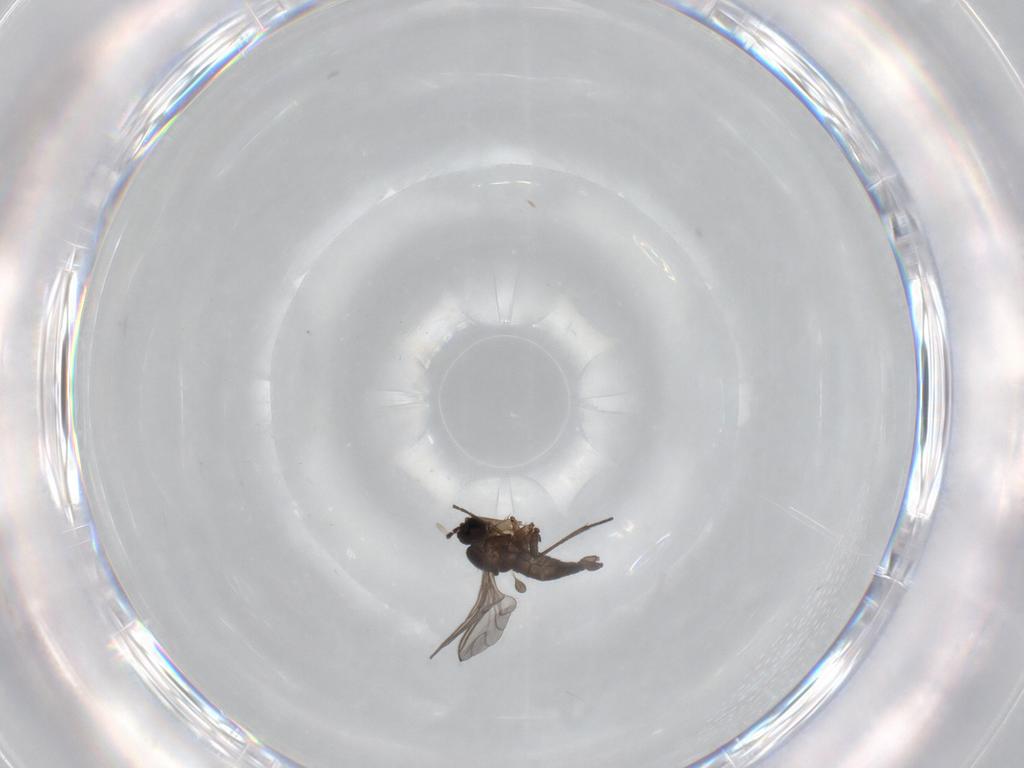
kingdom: Animalia
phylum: Arthropoda
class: Insecta
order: Diptera
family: Sciaridae
